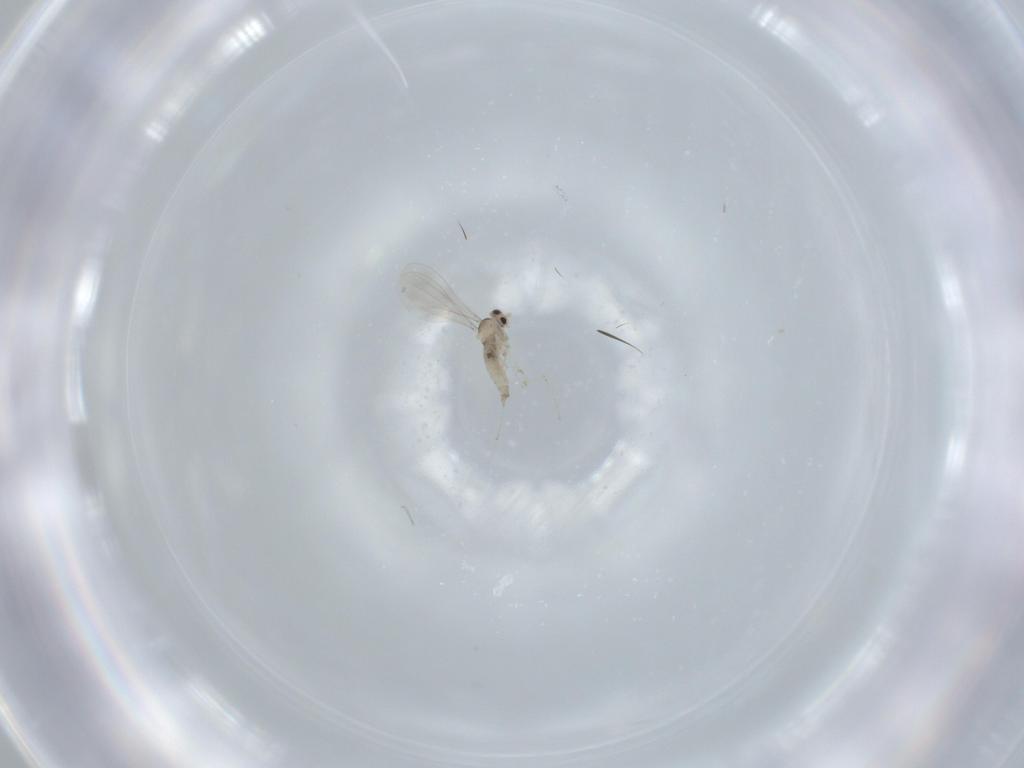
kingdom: Animalia
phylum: Arthropoda
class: Insecta
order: Diptera
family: Cecidomyiidae
